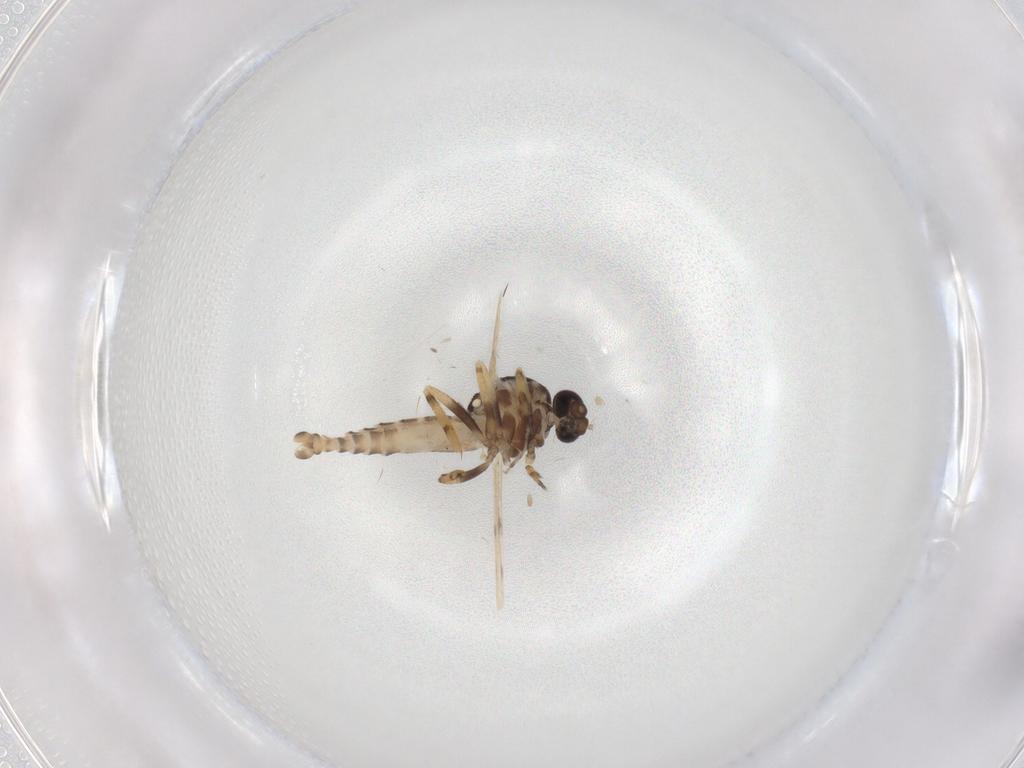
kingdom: Animalia
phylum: Arthropoda
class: Insecta
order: Diptera
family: Ceratopogonidae
